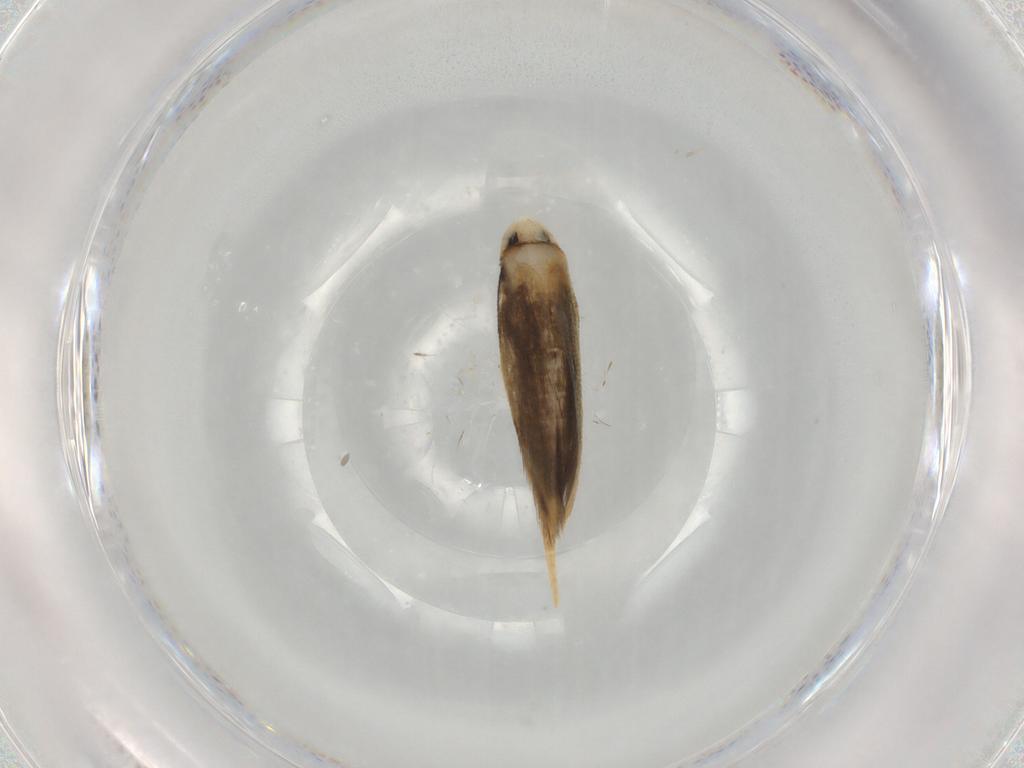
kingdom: Animalia
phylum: Arthropoda
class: Insecta
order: Lepidoptera
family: Tineidae
